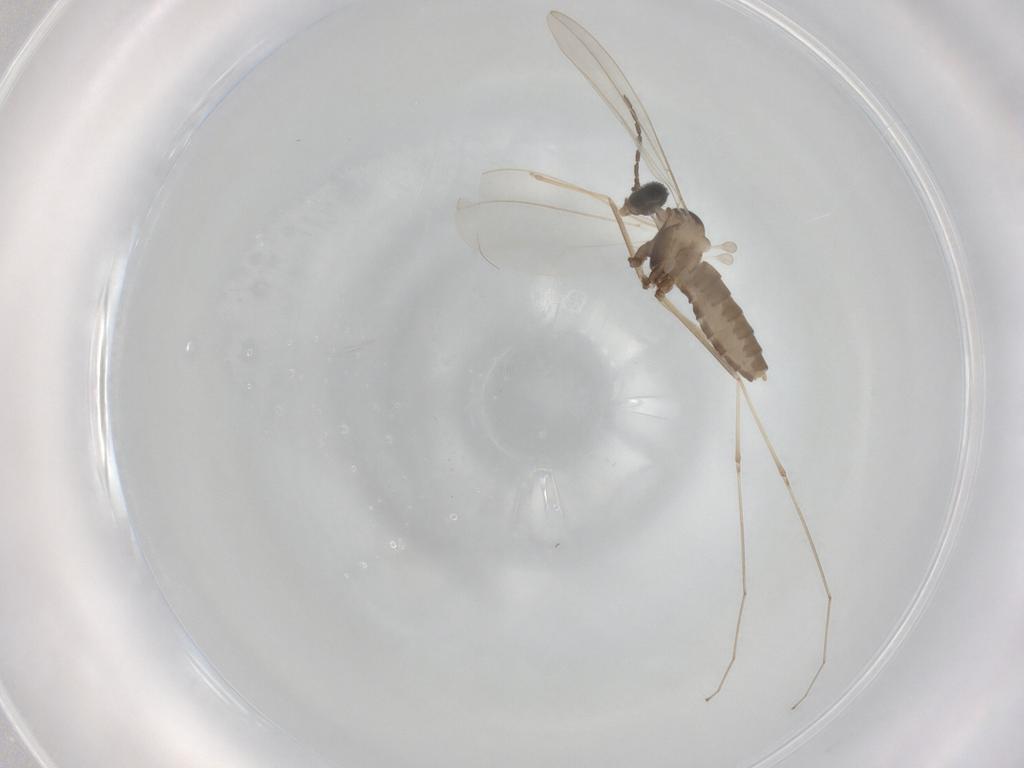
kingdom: Animalia
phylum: Arthropoda
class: Insecta
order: Diptera
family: Cecidomyiidae
